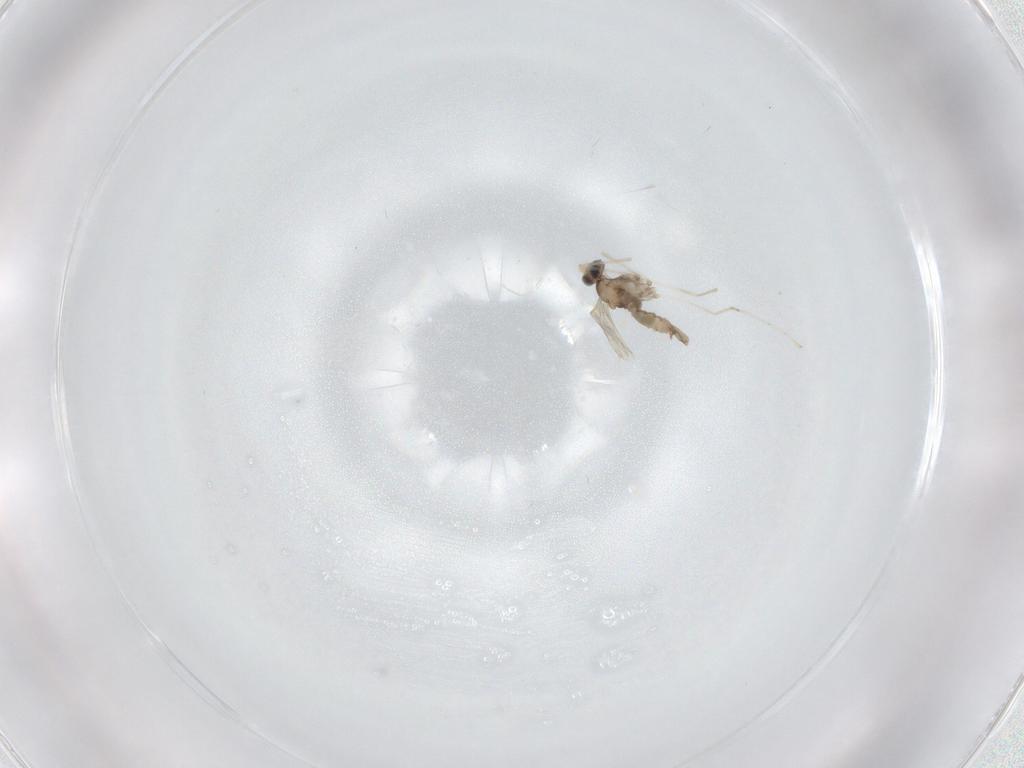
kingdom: Animalia
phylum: Arthropoda
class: Insecta
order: Diptera
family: Cecidomyiidae
